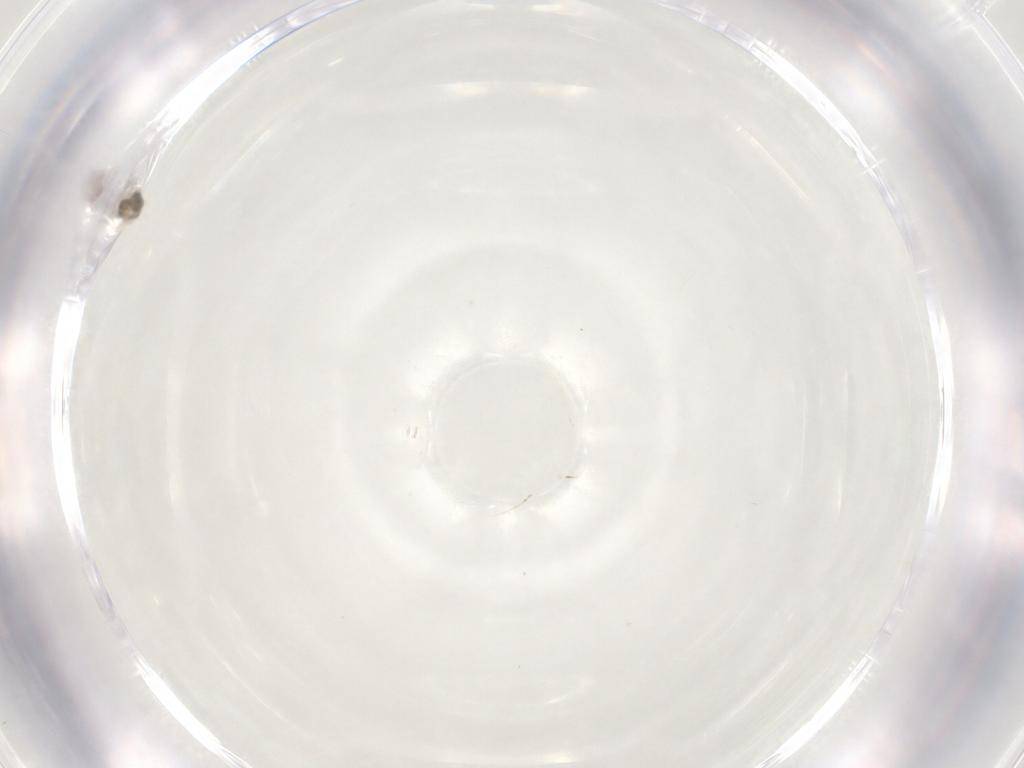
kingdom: Animalia
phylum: Arthropoda
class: Insecta
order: Diptera
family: Cecidomyiidae
